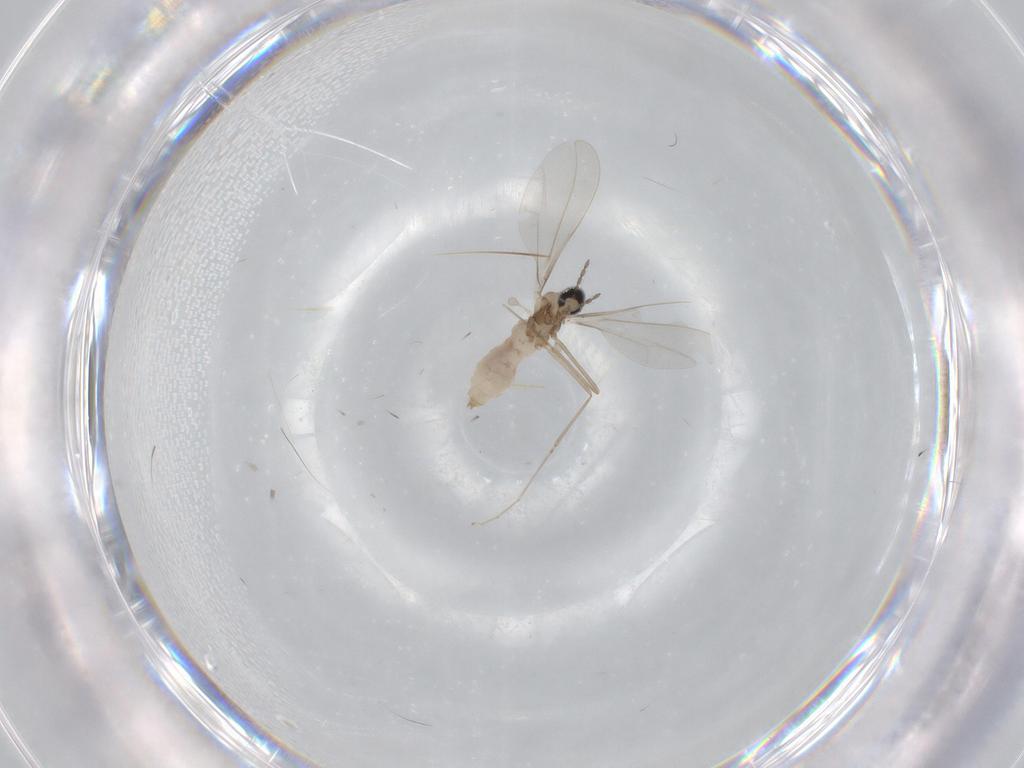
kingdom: Animalia
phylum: Arthropoda
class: Insecta
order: Diptera
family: Cecidomyiidae
